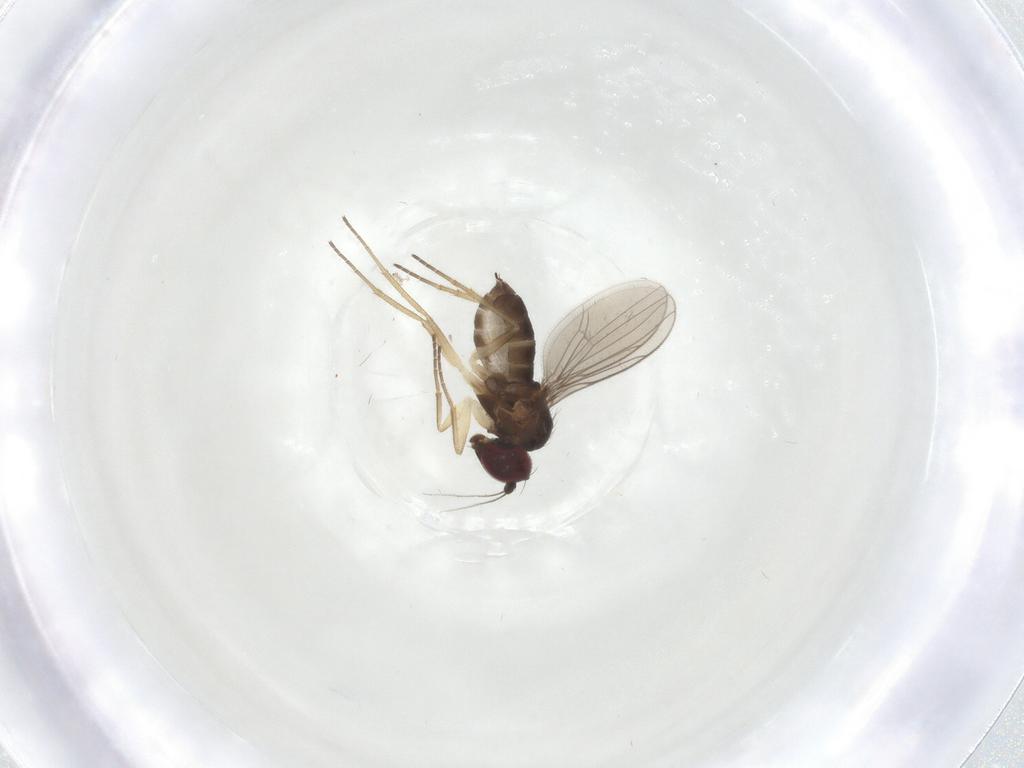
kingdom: Animalia
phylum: Arthropoda
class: Insecta
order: Diptera
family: Dolichopodidae
